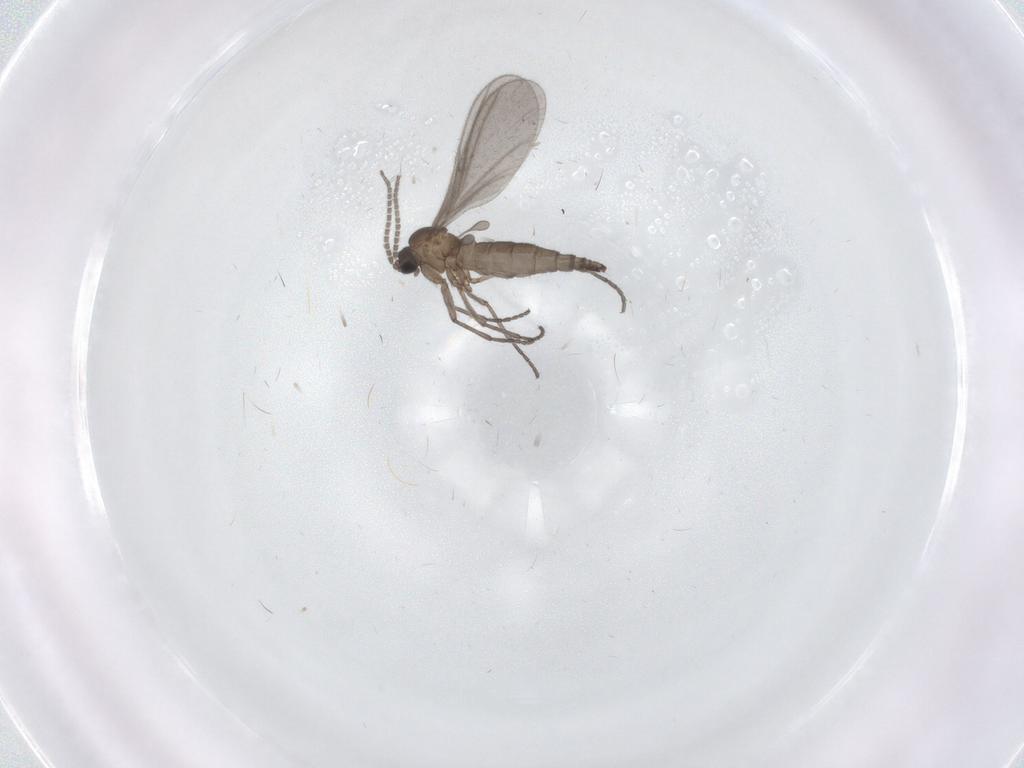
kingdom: Animalia
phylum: Arthropoda
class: Insecta
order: Diptera
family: Sciaridae
